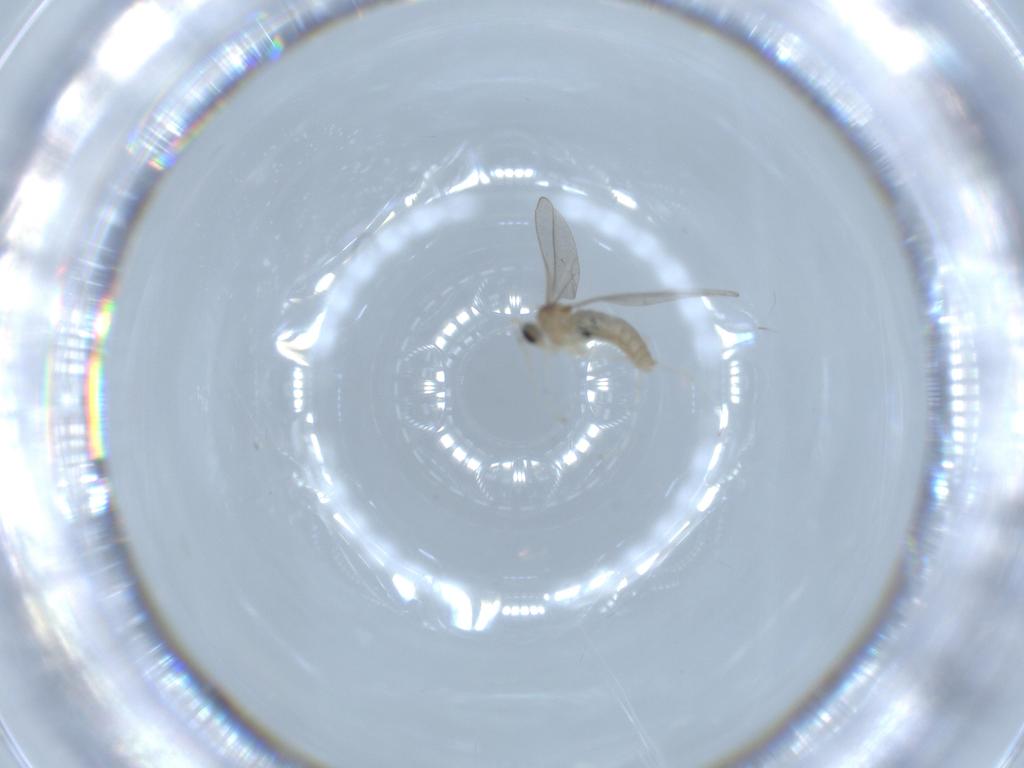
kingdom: Animalia
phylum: Arthropoda
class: Insecta
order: Diptera
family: Cecidomyiidae
